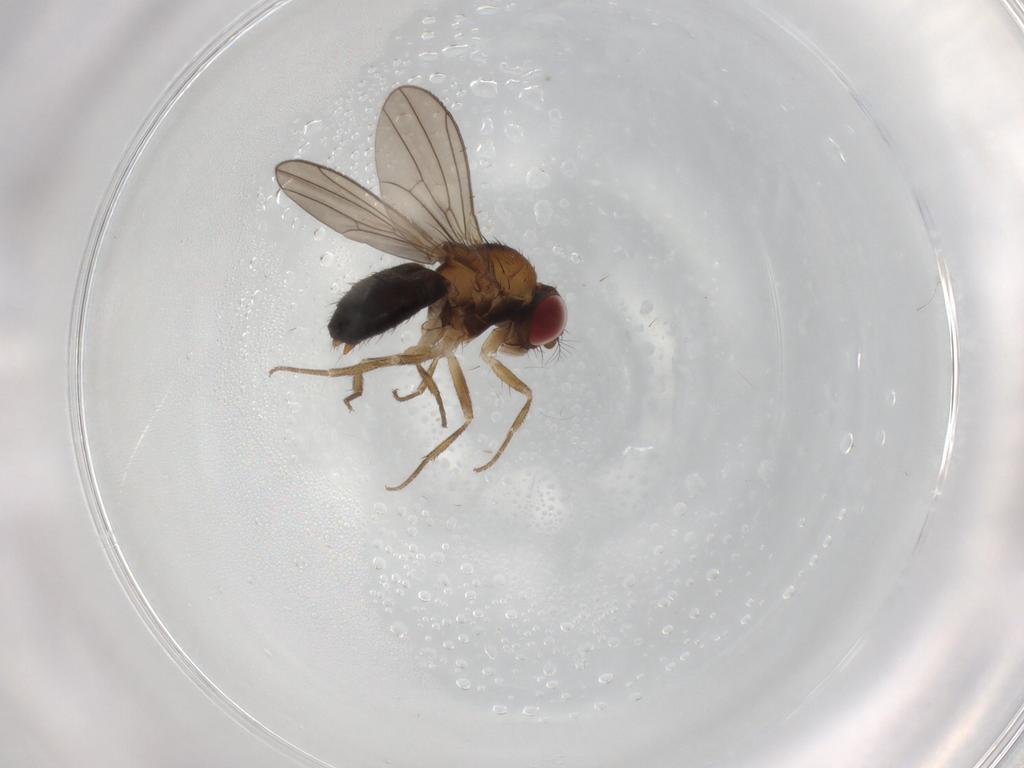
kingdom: Animalia
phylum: Arthropoda
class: Insecta
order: Diptera
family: Drosophilidae
